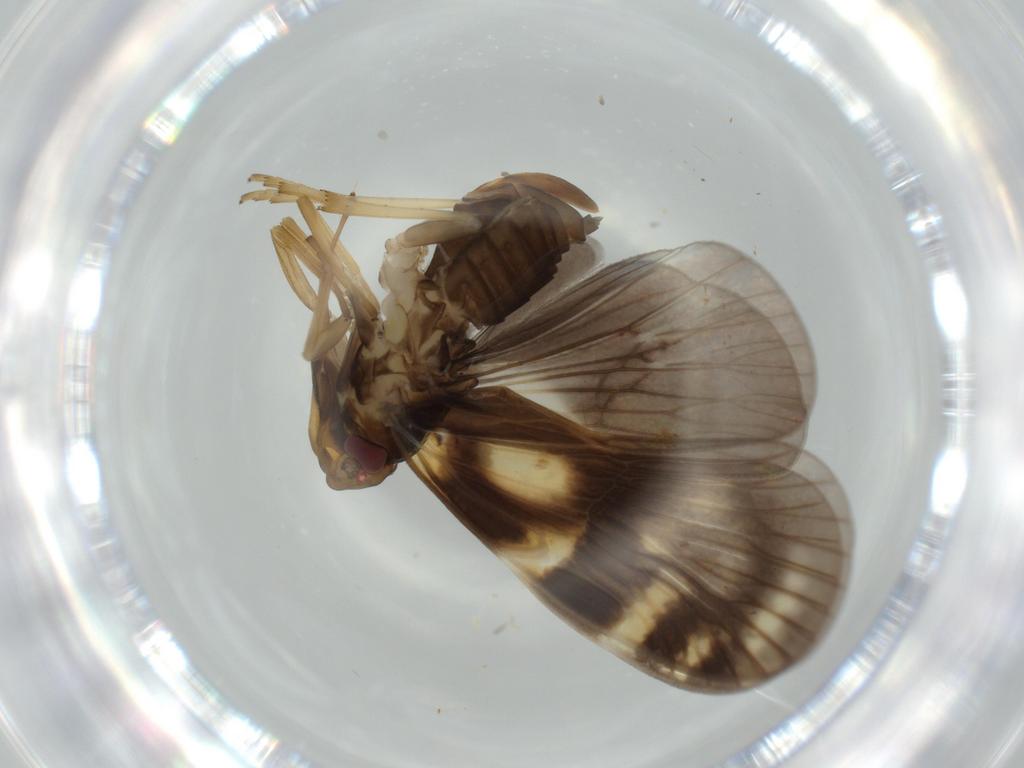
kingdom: Animalia
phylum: Arthropoda
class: Insecta
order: Hemiptera
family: Cixiidae
